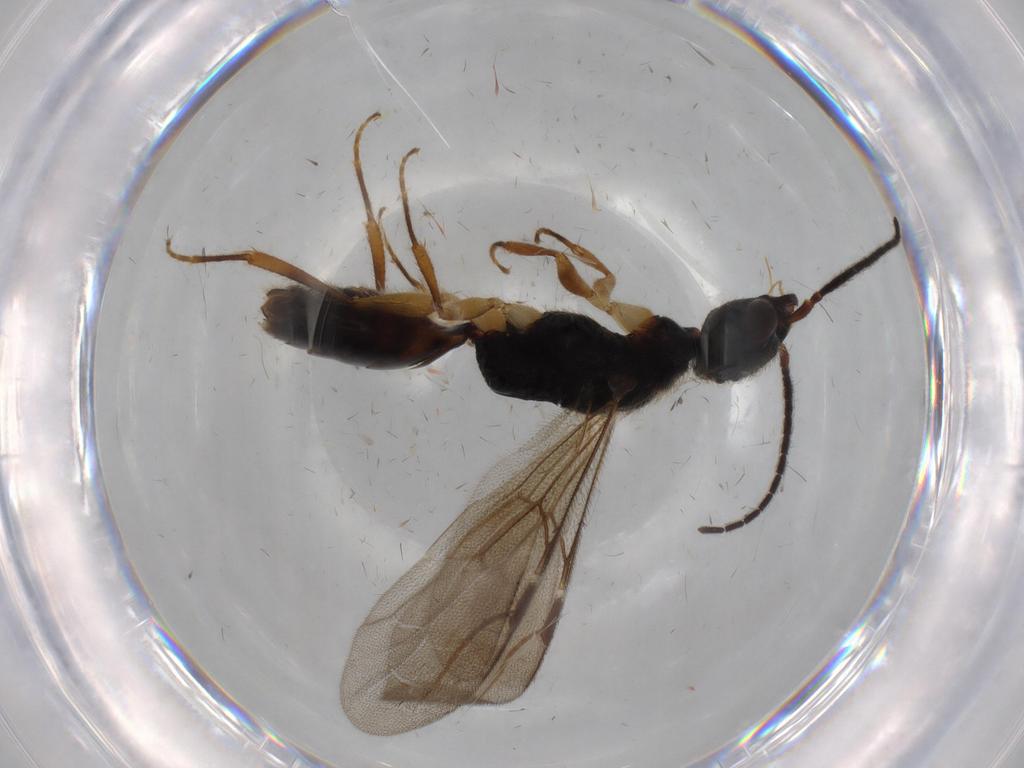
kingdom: Animalia
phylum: Arthropoda
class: Insecta
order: Hymenoptera
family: Bethylidae
